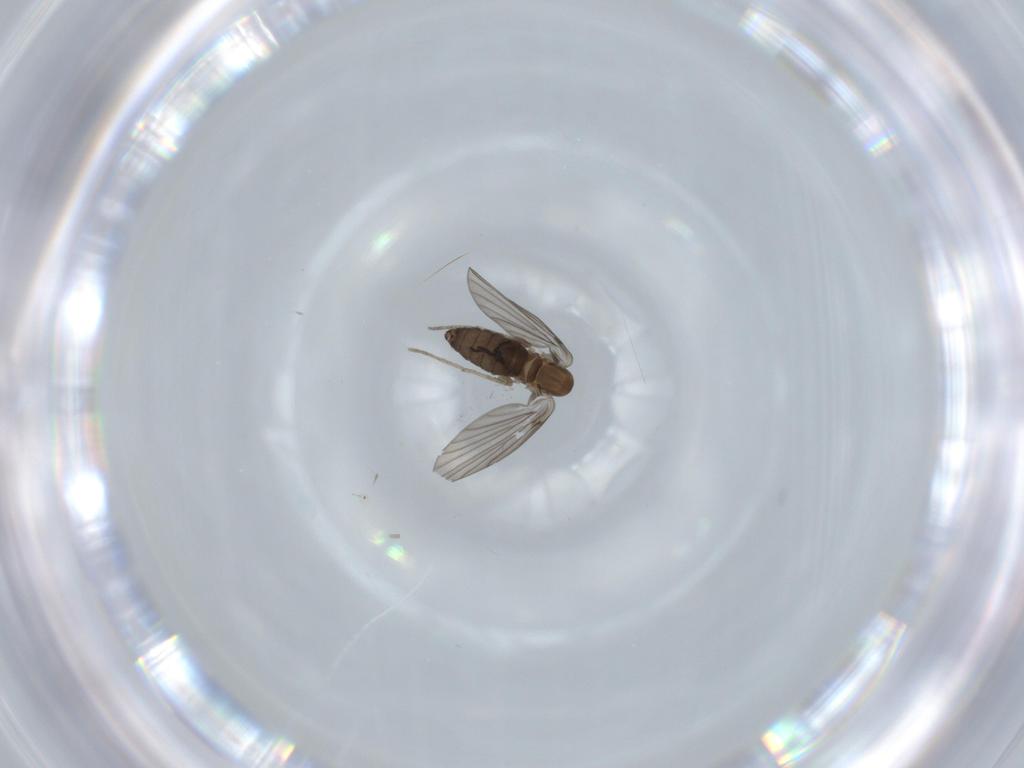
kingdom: Animalia
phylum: Arthropoda
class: Insecta
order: Diptera
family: Psychodidae
